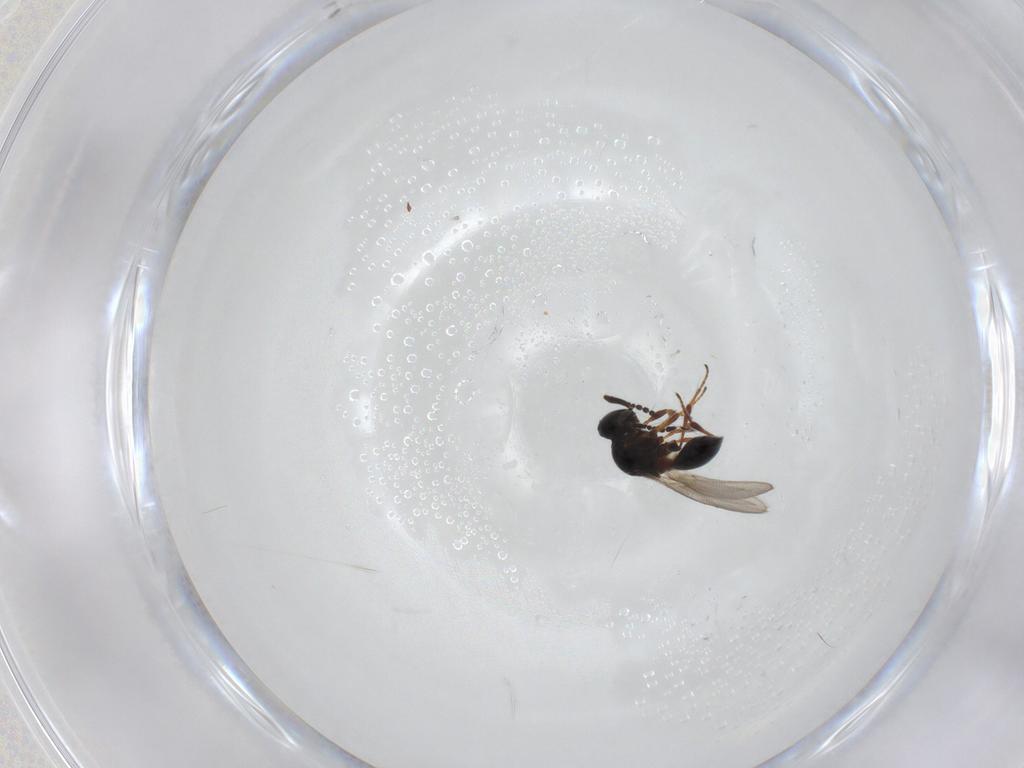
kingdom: Animalia
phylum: Arthropoda
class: Insecta
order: Hymenoptera
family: Platygastridae
